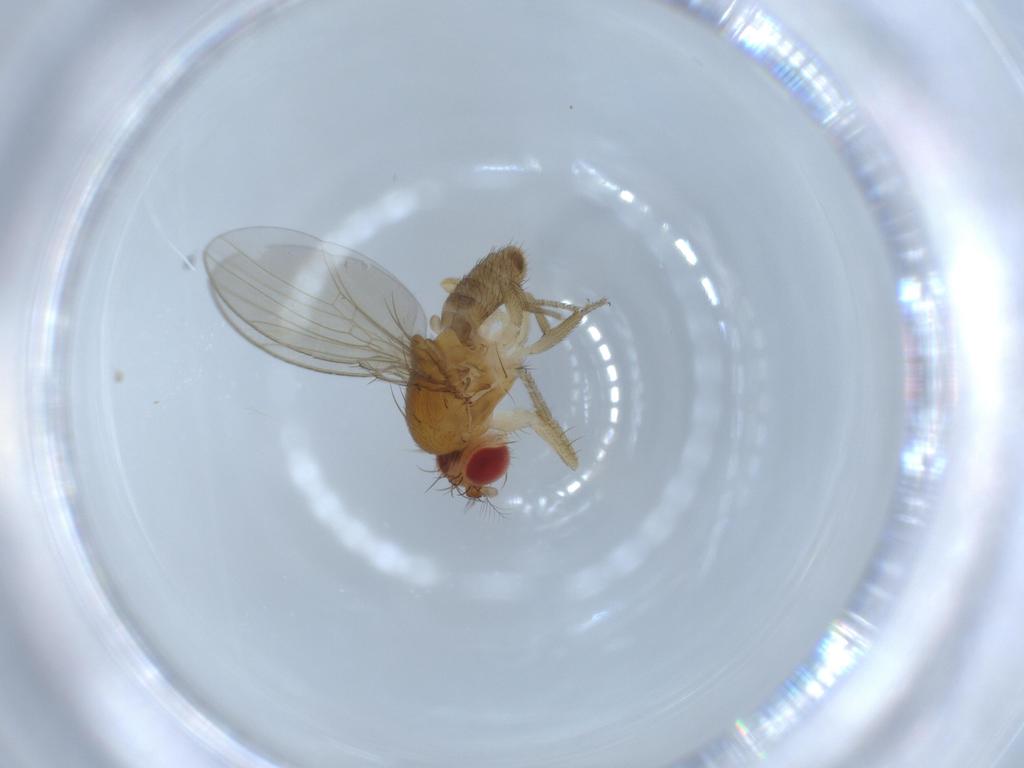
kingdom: Animalia
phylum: Arthropoda
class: Insecta
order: Diptera
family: Drosophilidae
